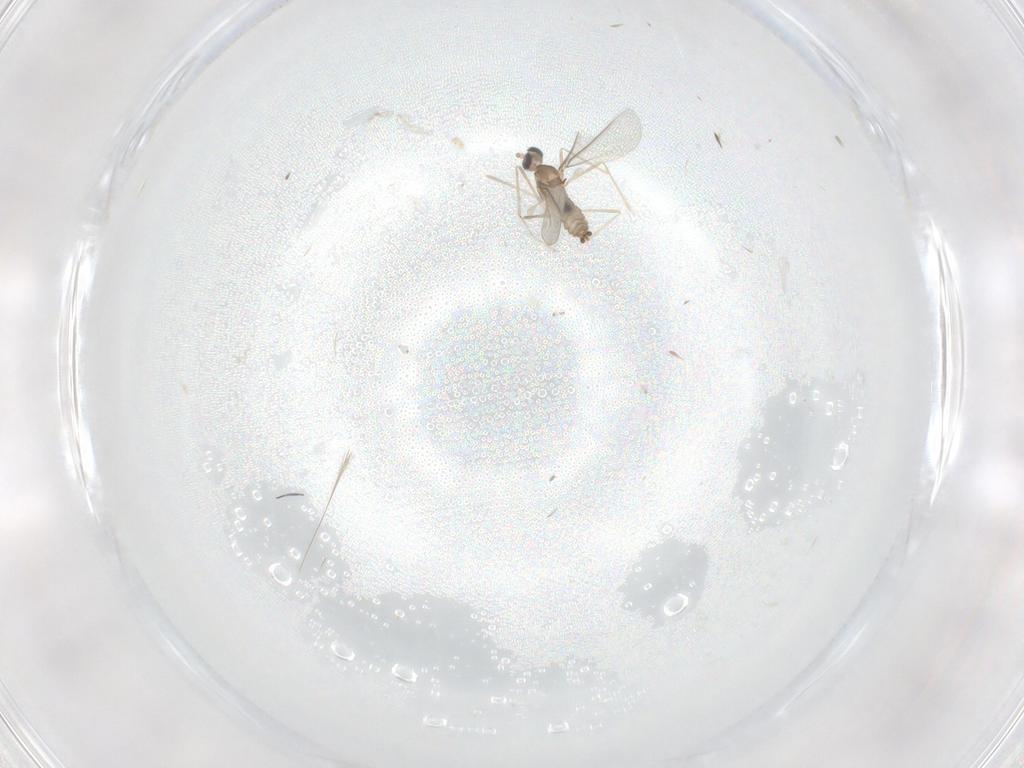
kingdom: Animalia
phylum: Arthropoda
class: Insecta
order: Diptera
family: Cecidomyiidae
